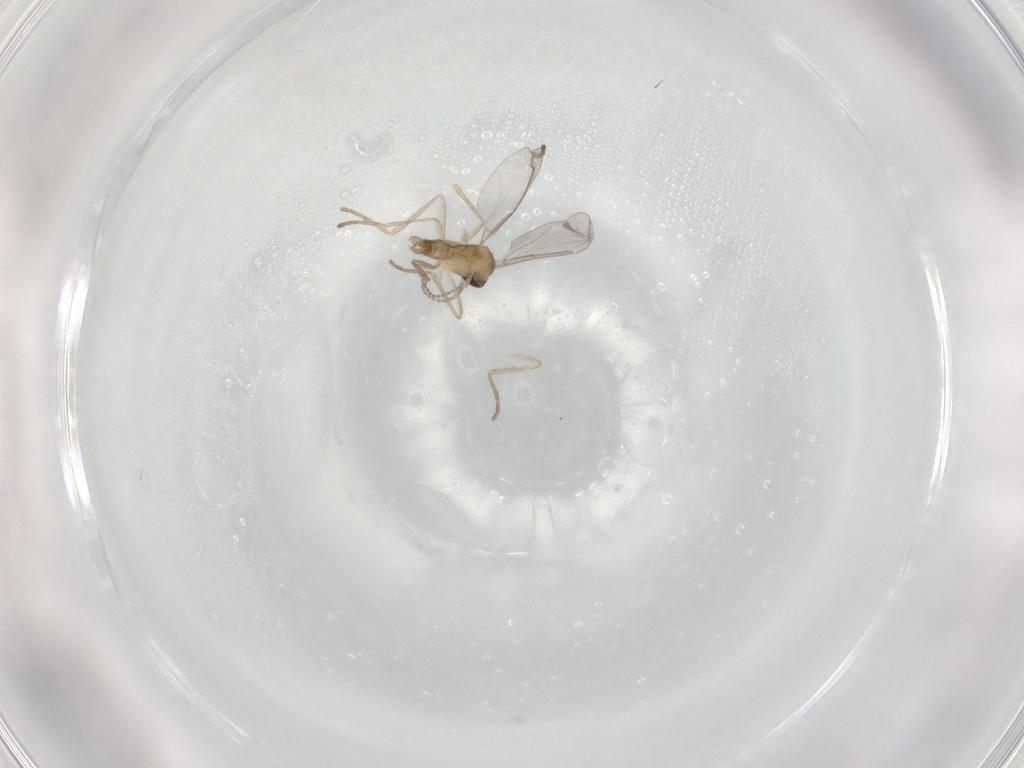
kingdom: Animalia
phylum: Arthropoda
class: Insecta
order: Diptera
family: Cecidomyiidae
